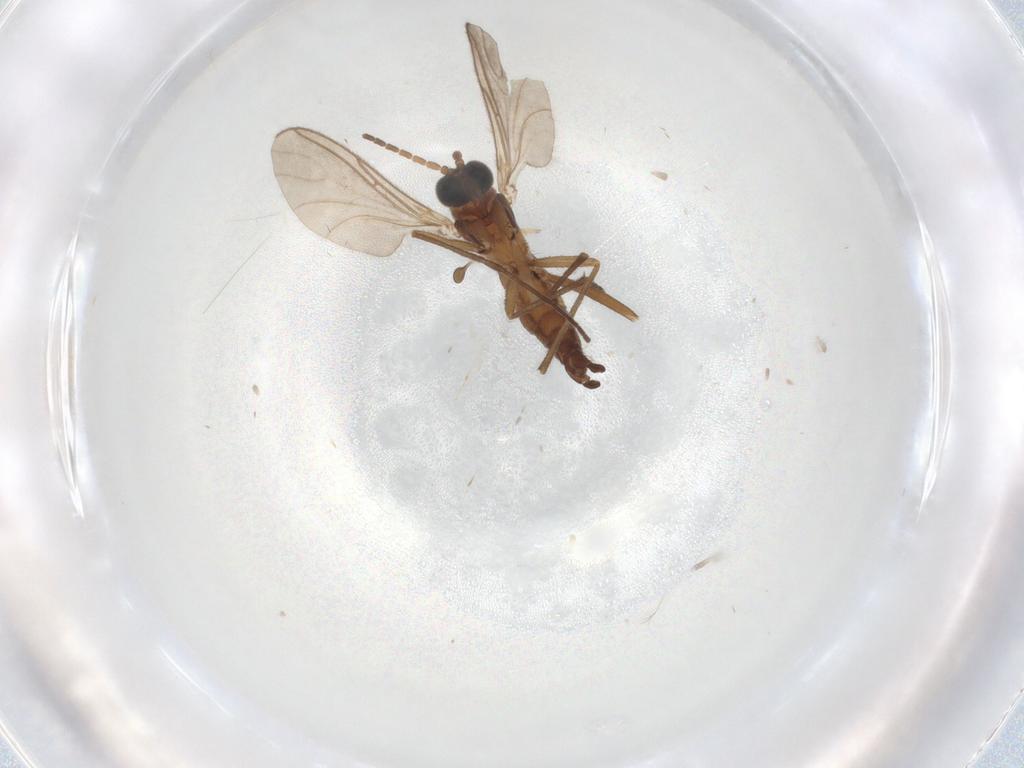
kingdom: Animalia
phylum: Arthropoda
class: Insecta
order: Diptera
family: Sciaridae
